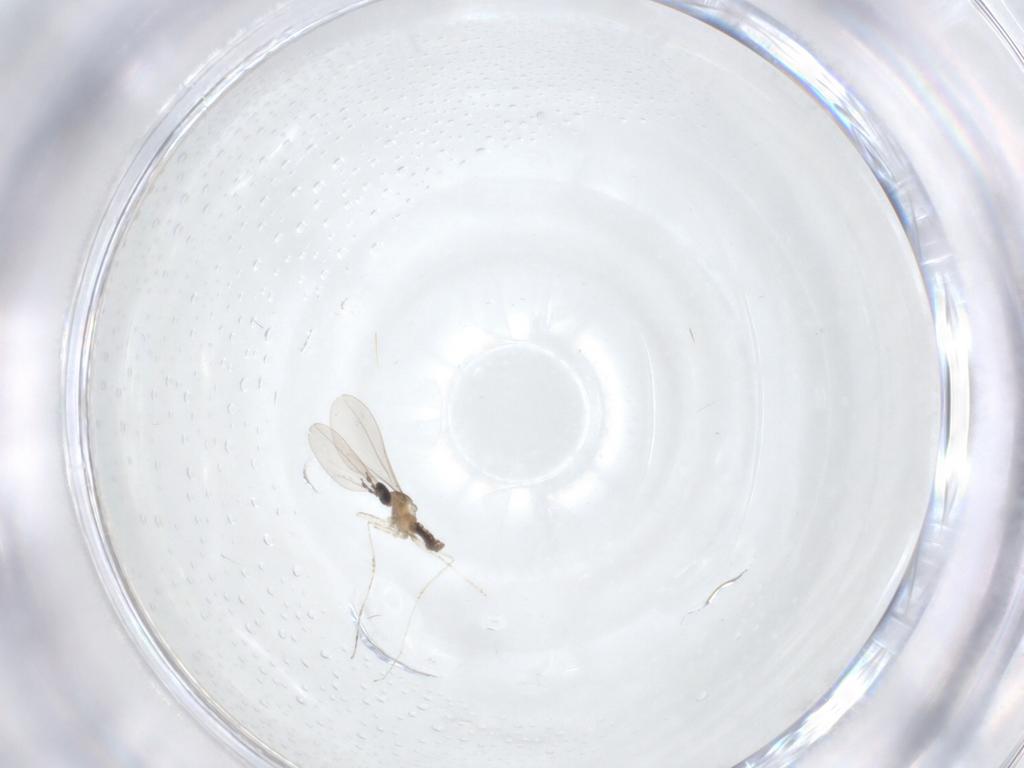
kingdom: Animalia
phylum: Arthropoda
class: Insecta
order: Diptera
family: Cecidomyiidae
